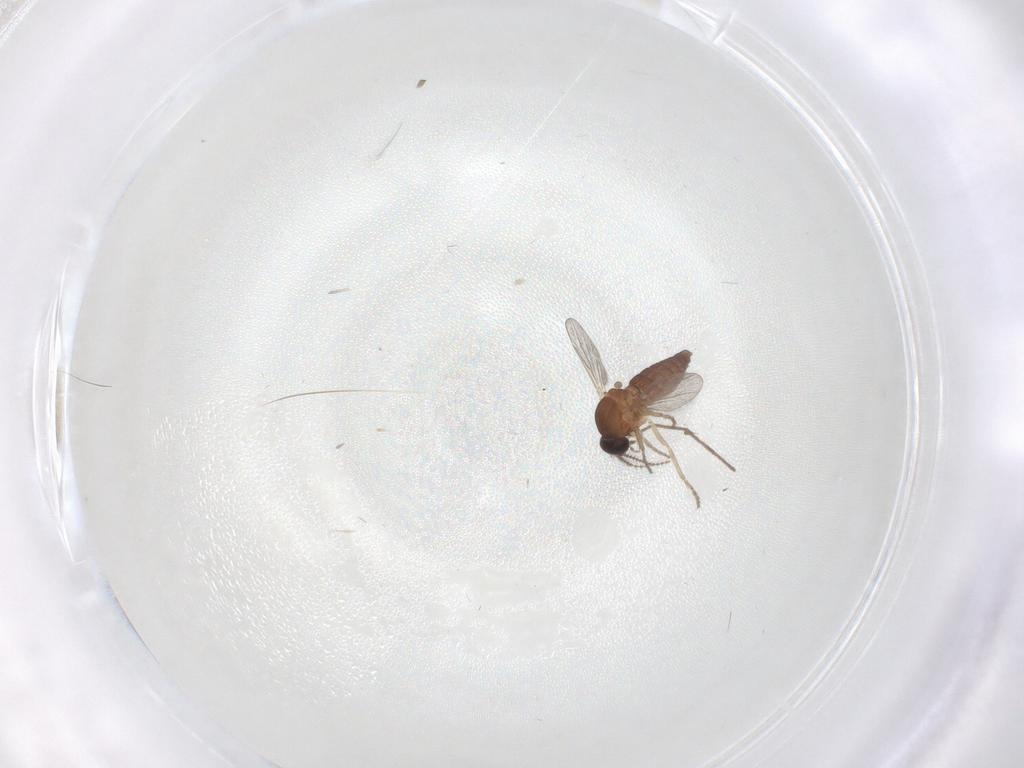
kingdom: Animalia
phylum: Arthropoda
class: Insecta
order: Diptera
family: Ceratopogonidae
